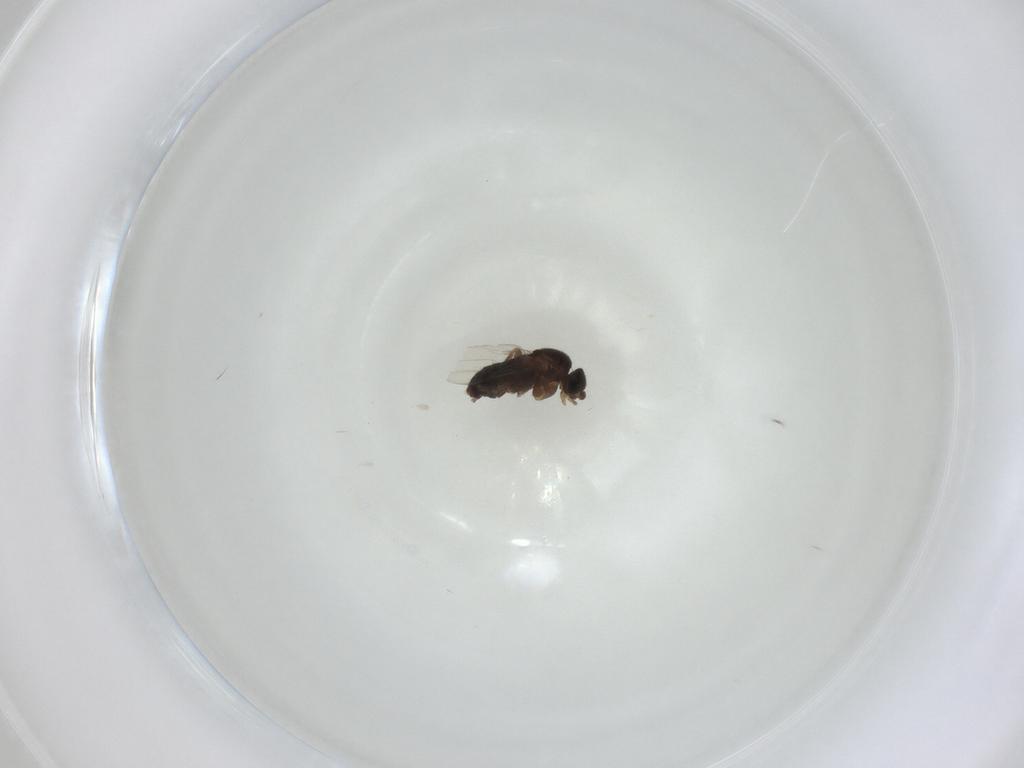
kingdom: Animalia
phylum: Arthropoda
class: Insecta
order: Diptera
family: Phoridae
